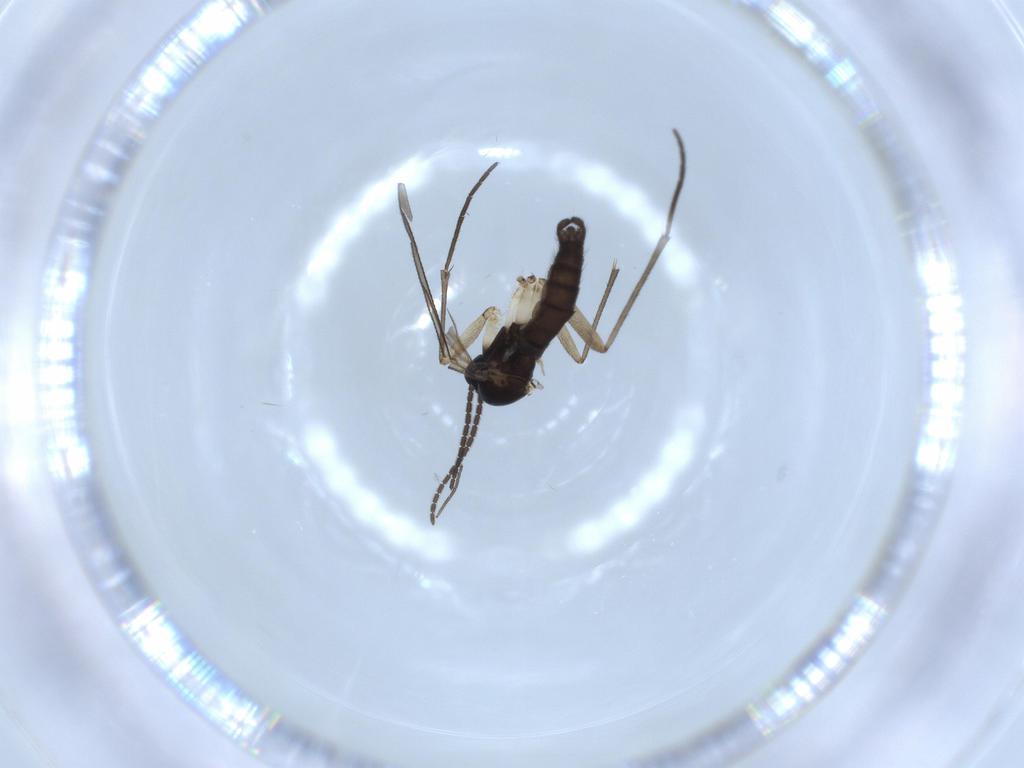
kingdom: Animalia
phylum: Arthropoda
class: Insecta
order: Diptera
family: Sciaridae
